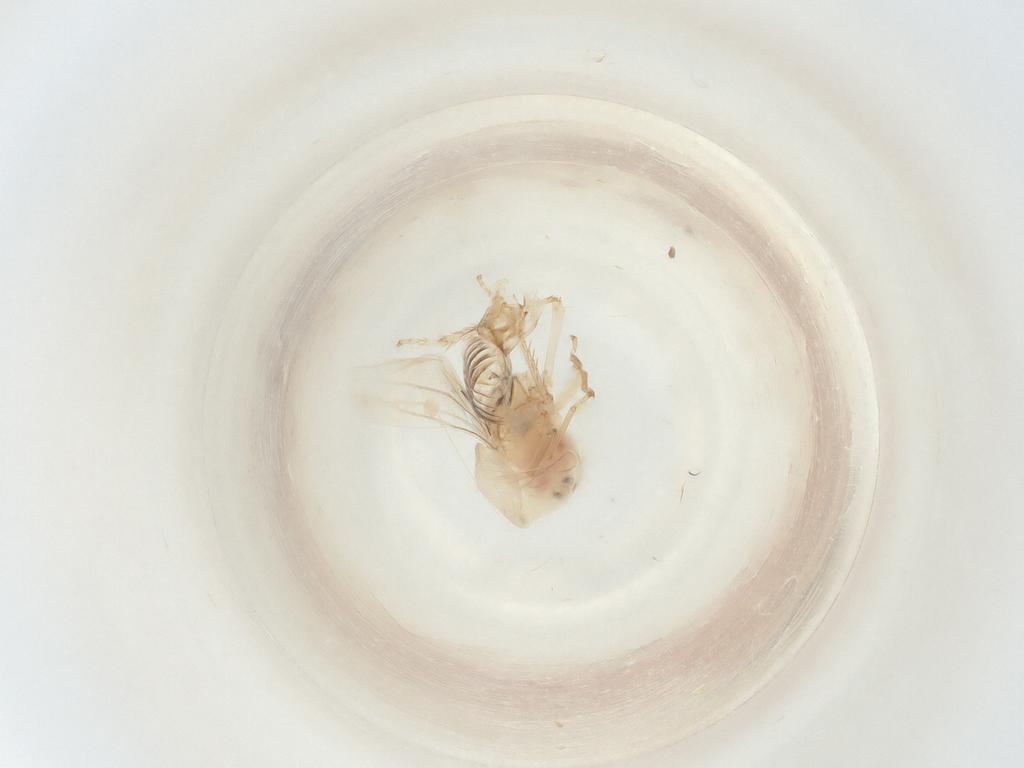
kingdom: Animalia
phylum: Arthropoda
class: Insecta
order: Hemiptera
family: Cicadellidae
